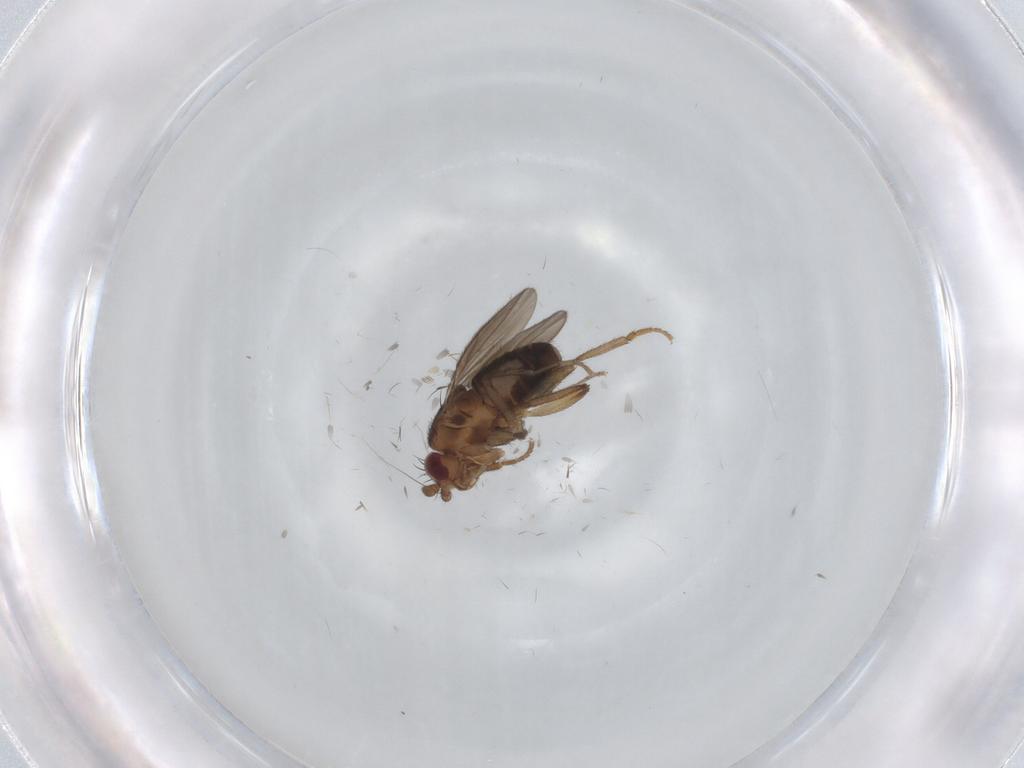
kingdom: Animalia
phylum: Arthropoda
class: Insecta
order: Diptera
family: Sphaeroceridae
